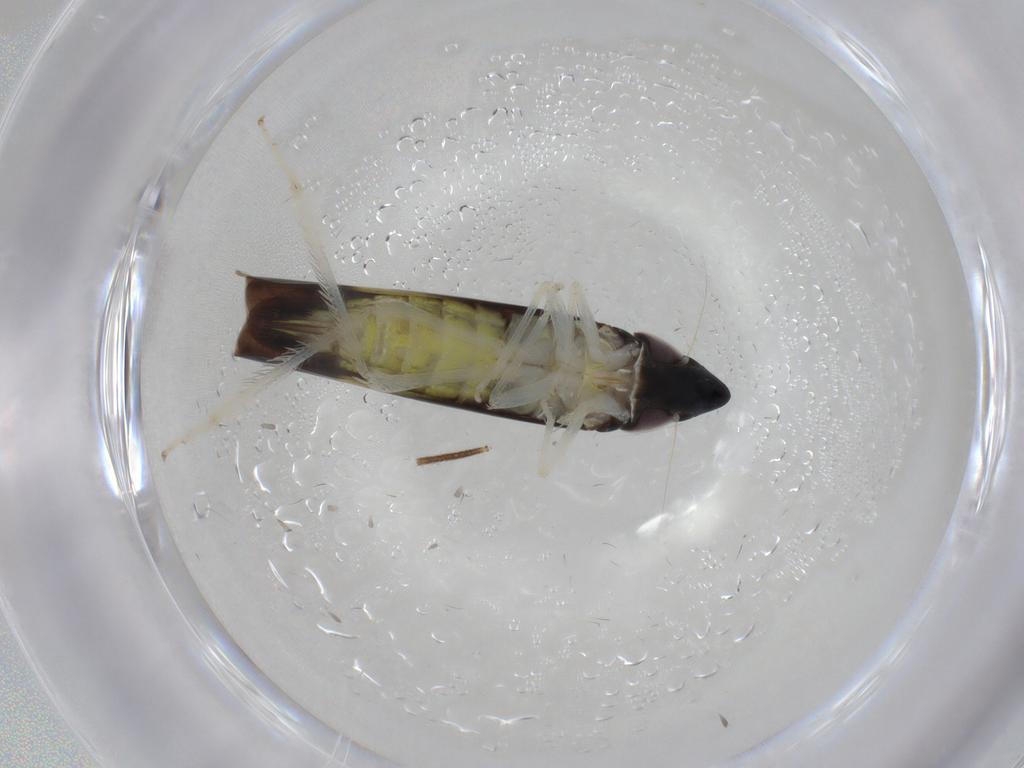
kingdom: Animalia
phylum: Arthropoda
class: Insecta
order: Hemiptera
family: Cicadellidae
